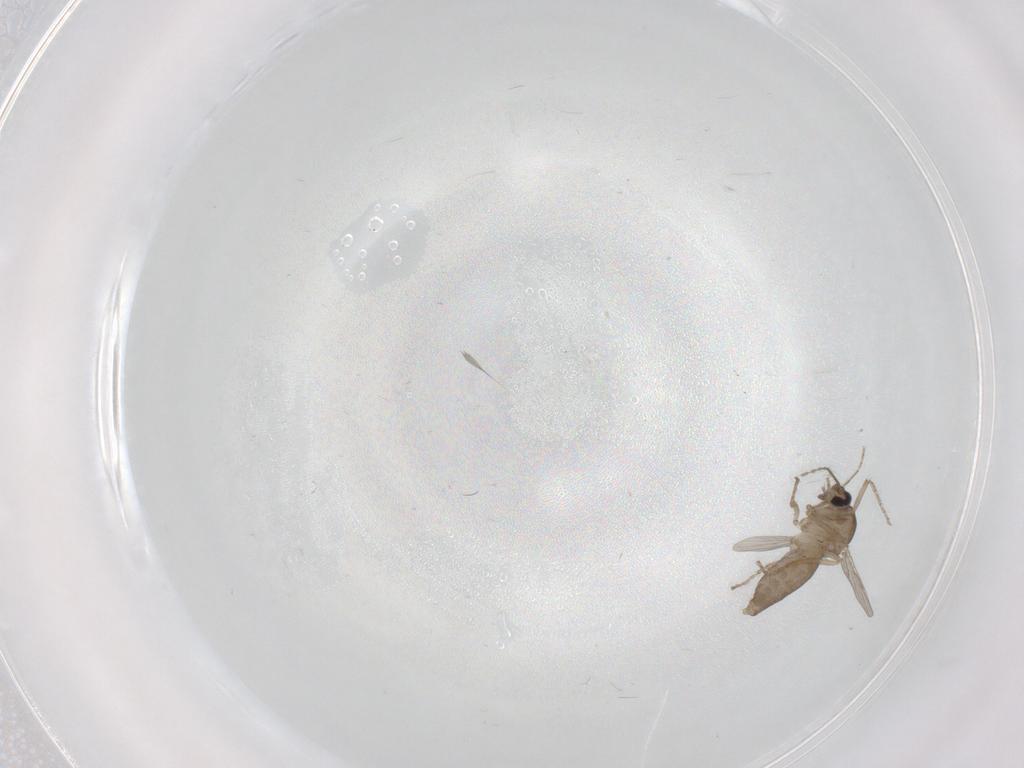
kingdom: Animalia
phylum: Arthropoda
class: Insecta
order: Diptera
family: Ceratopogonidae
